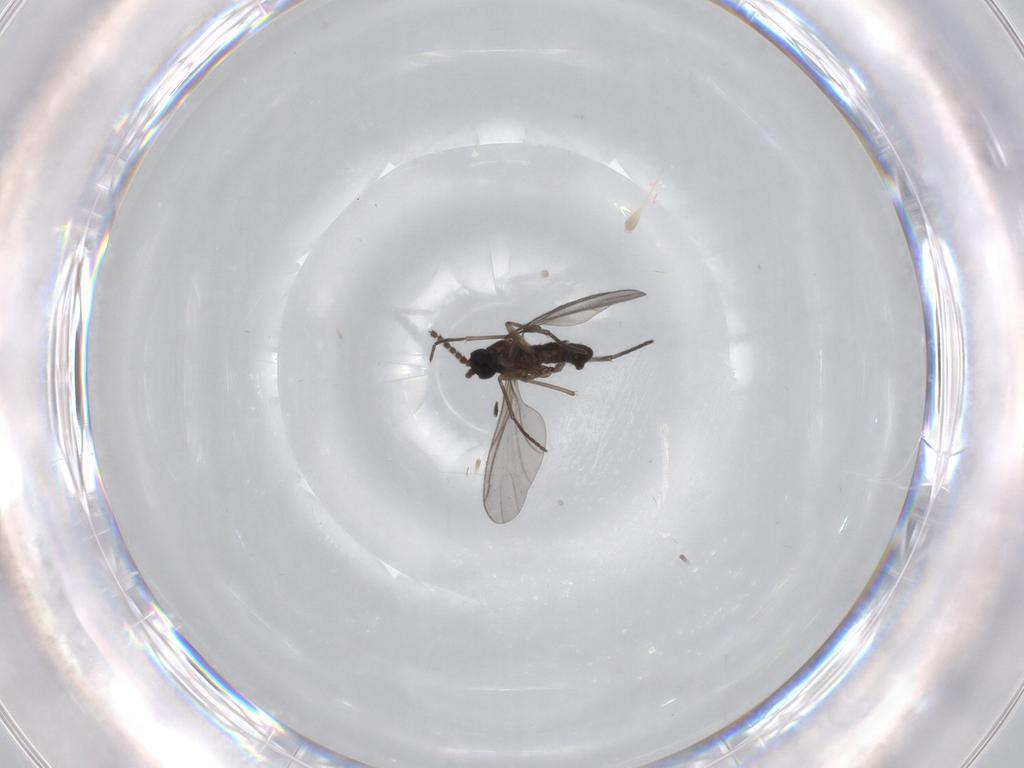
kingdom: Animalia
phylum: Arthropoda
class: Insecta
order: Diptera
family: Sciaridae
